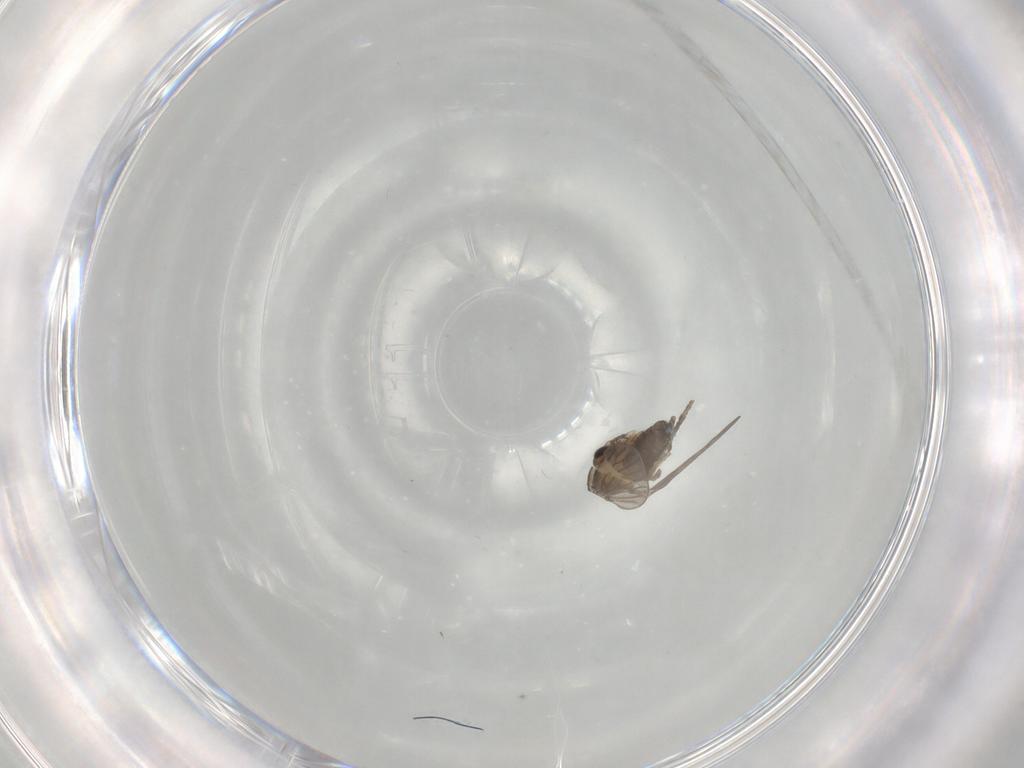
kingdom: Animalia
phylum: Arthropoda
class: Insecta
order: Diptera
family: Psychodidae
